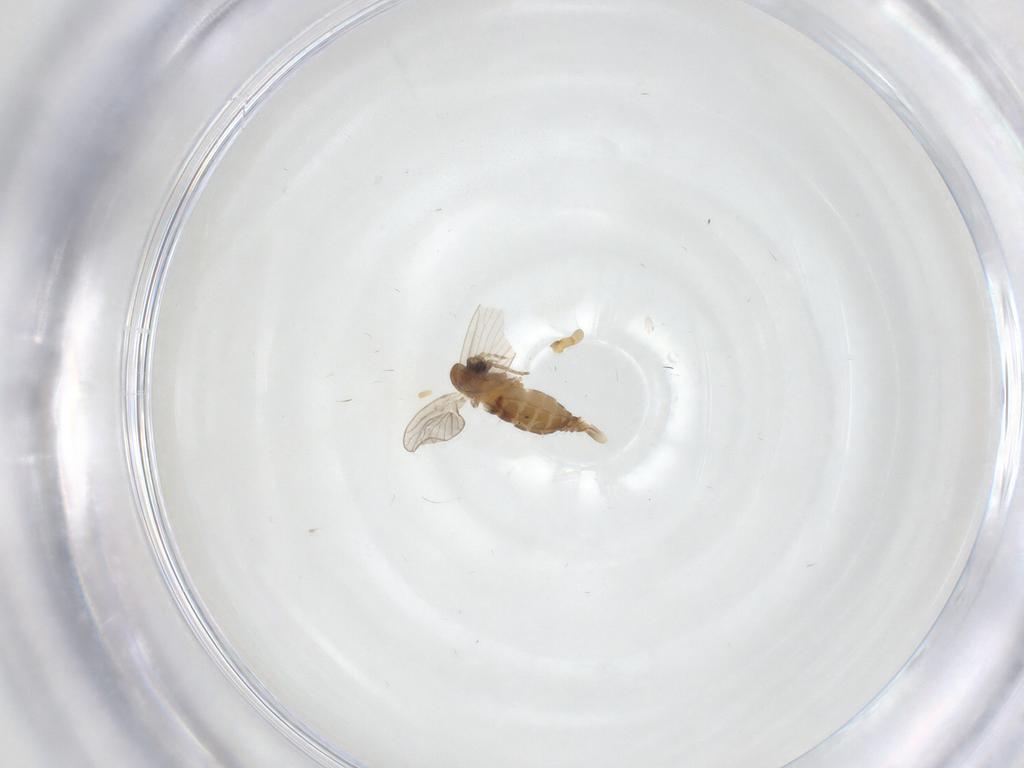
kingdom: Animalia
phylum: Arthropoda
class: Insecta
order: Diptera
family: Psychodidae
